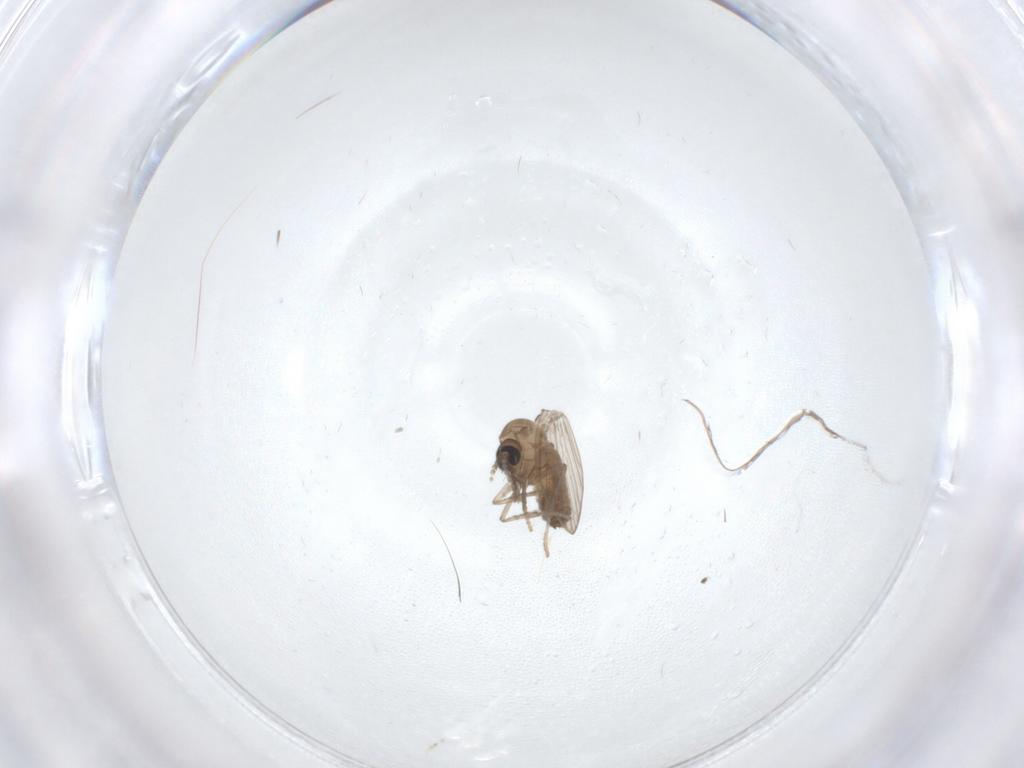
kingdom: Animalia
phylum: Arthropoda
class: Insecta
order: Diptera
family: Psychodidae
